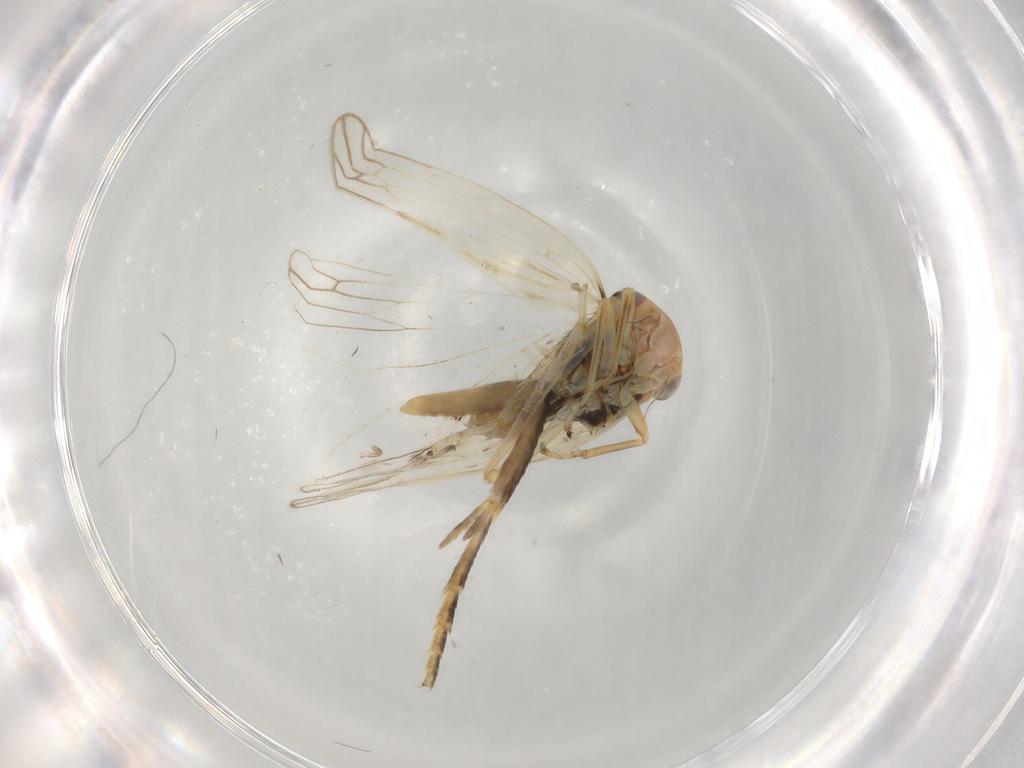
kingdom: Animalia
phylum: Arthropoda
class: Insecta
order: Hemiptera
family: Cicadellidae
